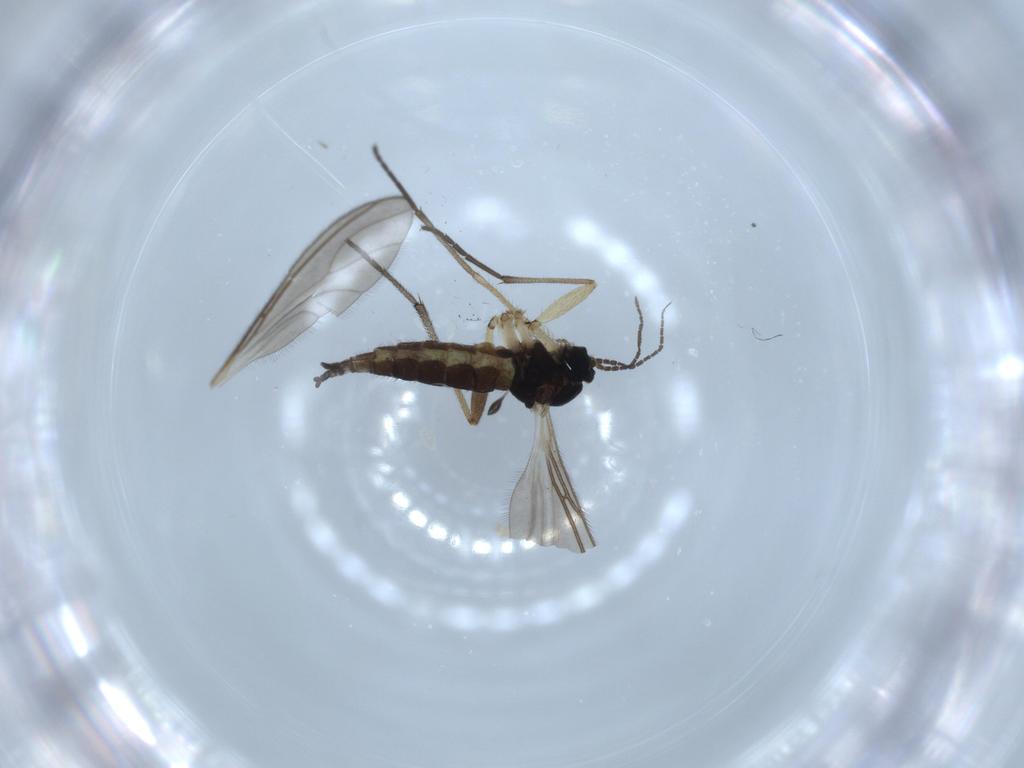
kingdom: Animalia
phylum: Arthropoda
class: Insecta
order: Diptera
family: Sciaridae
